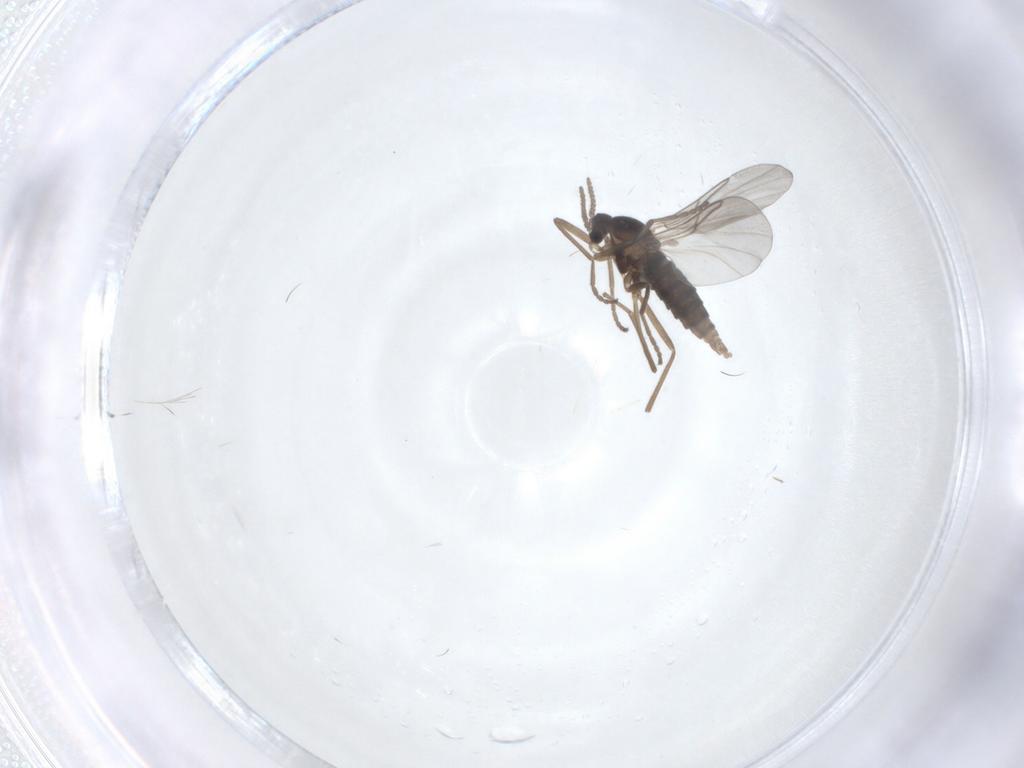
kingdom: Animalia
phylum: Arthropoda
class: Insecta
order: Diptera
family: Cecidomyiidae
